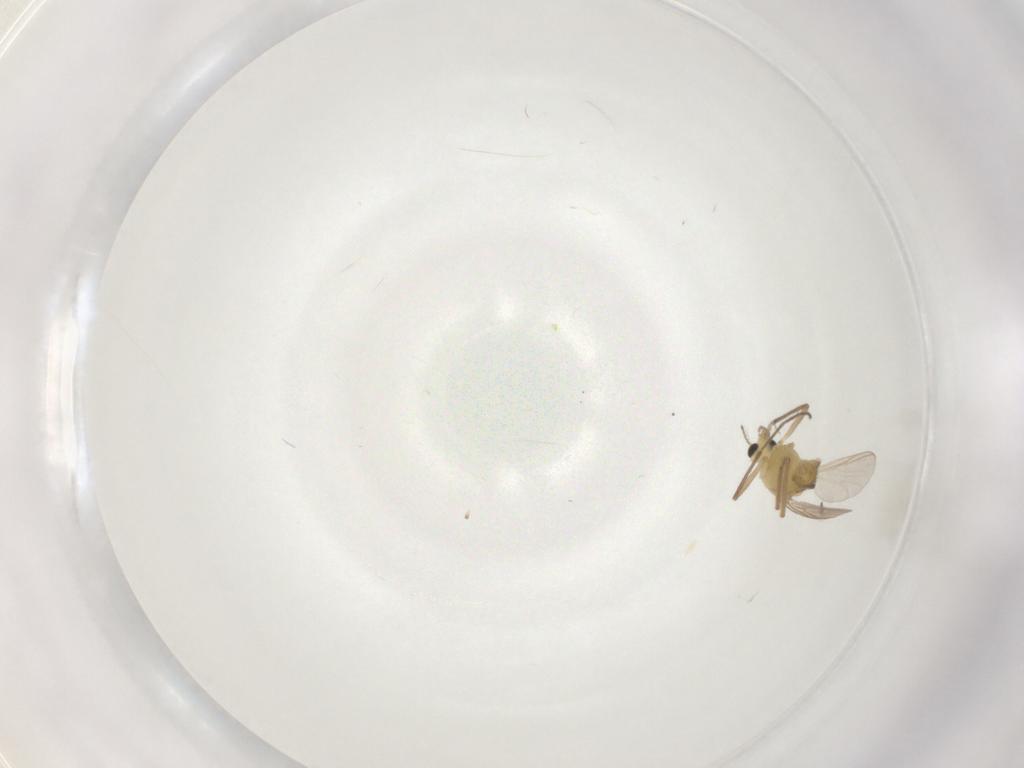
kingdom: Animalia
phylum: Arthropoda
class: Insecta
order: Diptera
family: Chironomidae
